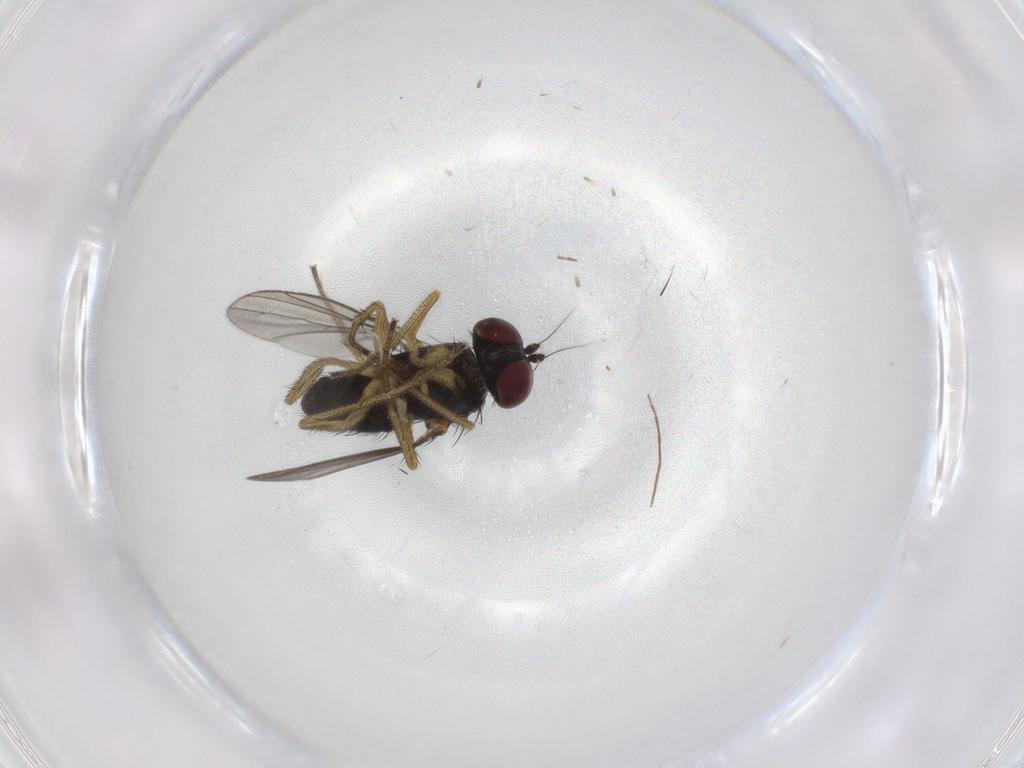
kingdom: Animalia
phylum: Arthropoda
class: Insecta
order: Diptera
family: Dolichopodidae
